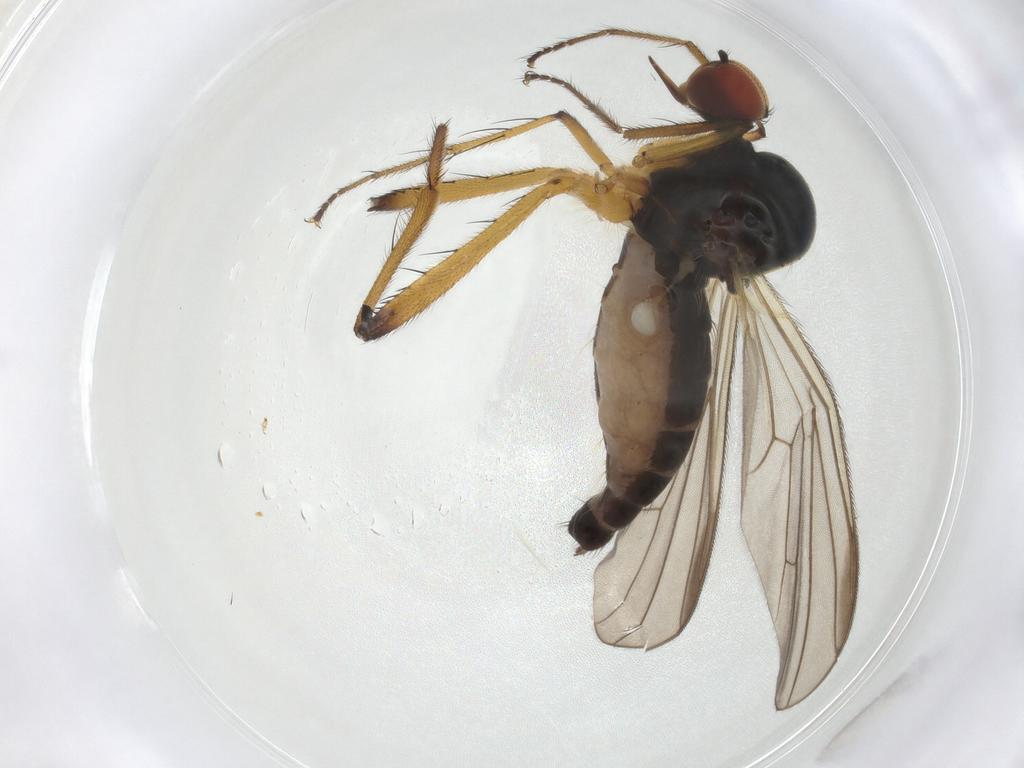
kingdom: Animalia
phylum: Arthropoda
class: Insecta
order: Diptera
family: Hybotidae
